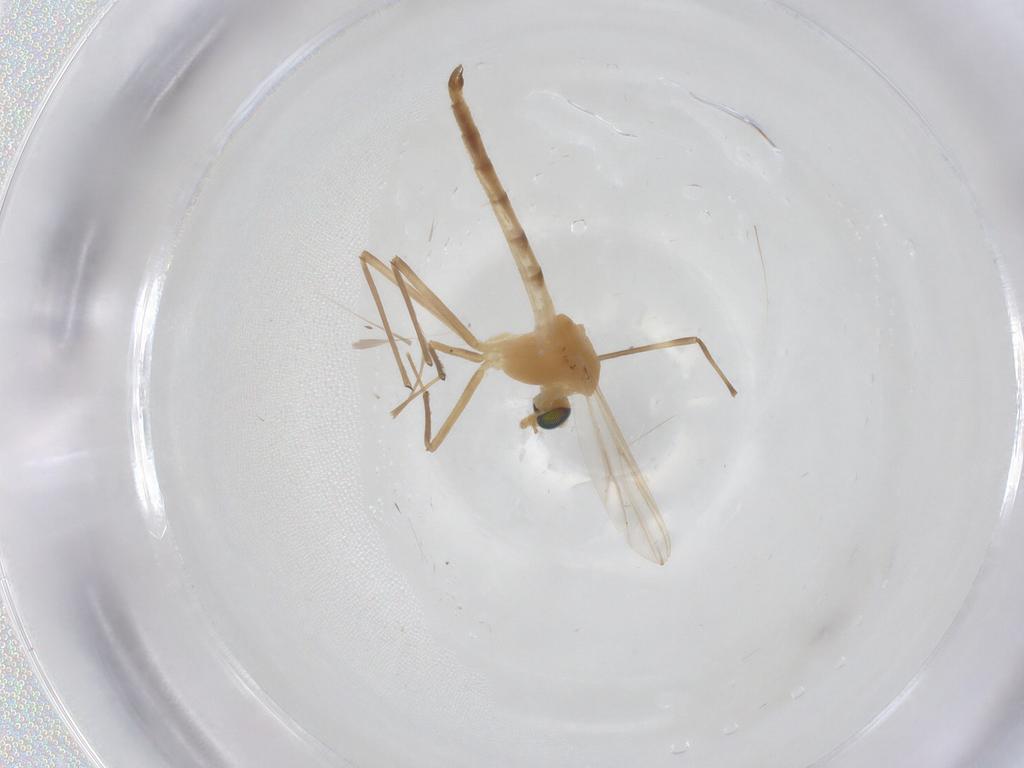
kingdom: Animalia
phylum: Arthropoda
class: Insecta
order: Diptera
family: Chironomidae
